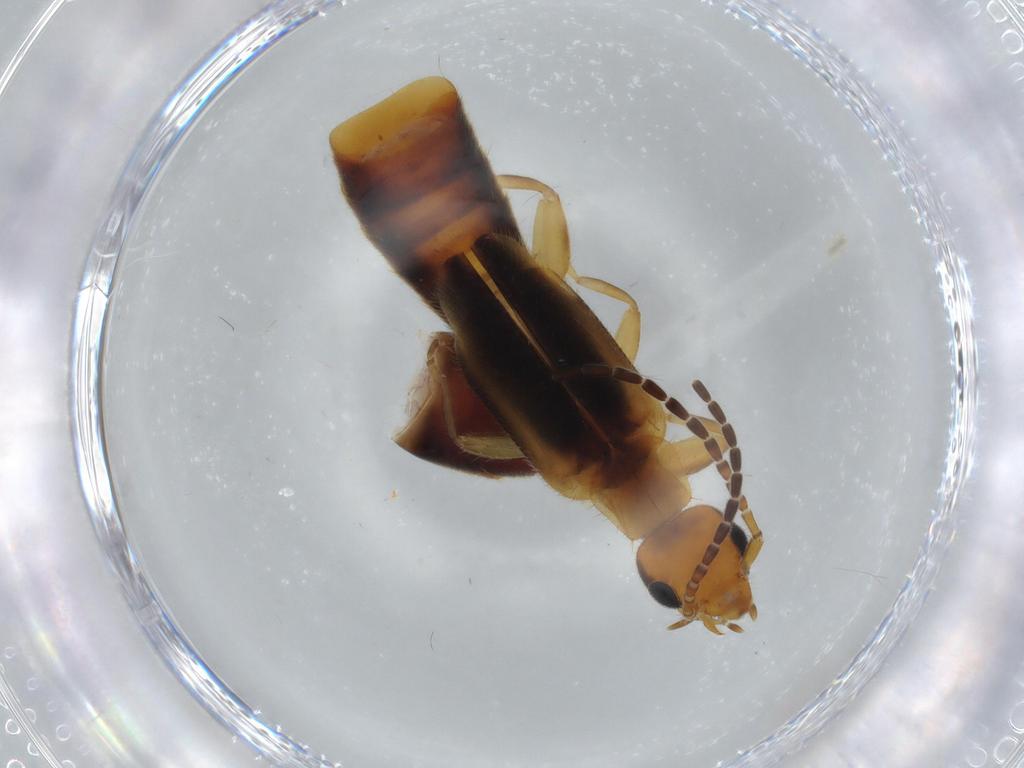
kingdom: Animalia
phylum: Arthropoda
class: Insecta
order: Dermaptera
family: Forficulidae
